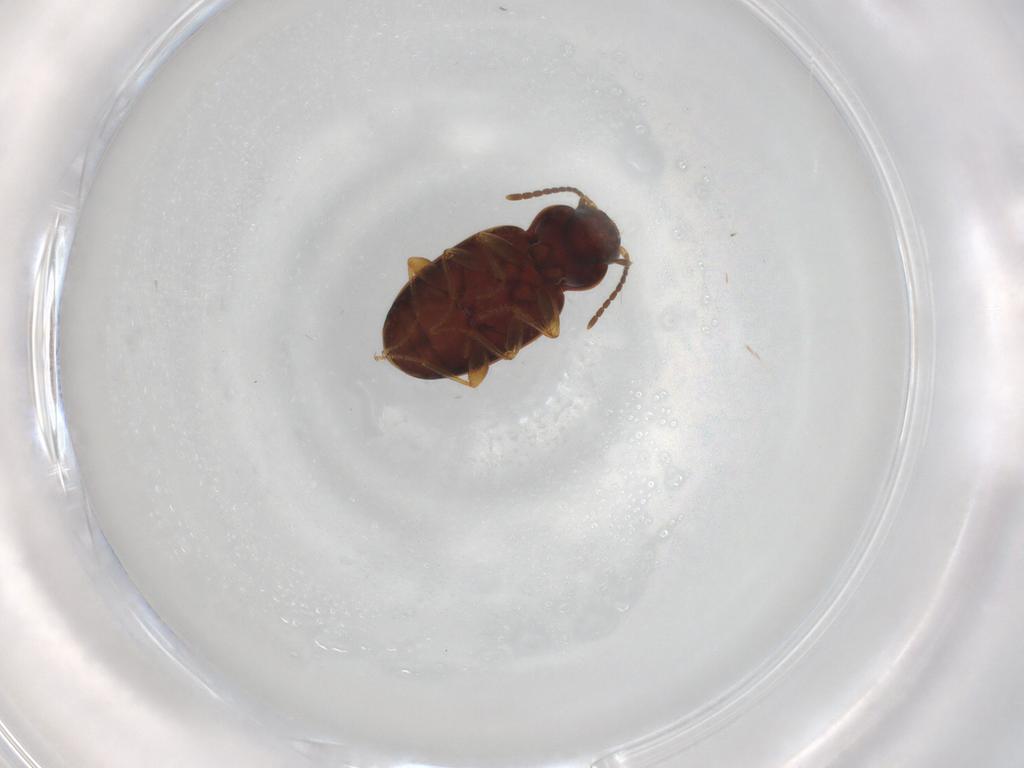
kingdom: Animalia
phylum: Arthropoda
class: Insecta
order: Coleoptera
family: Carabidae
